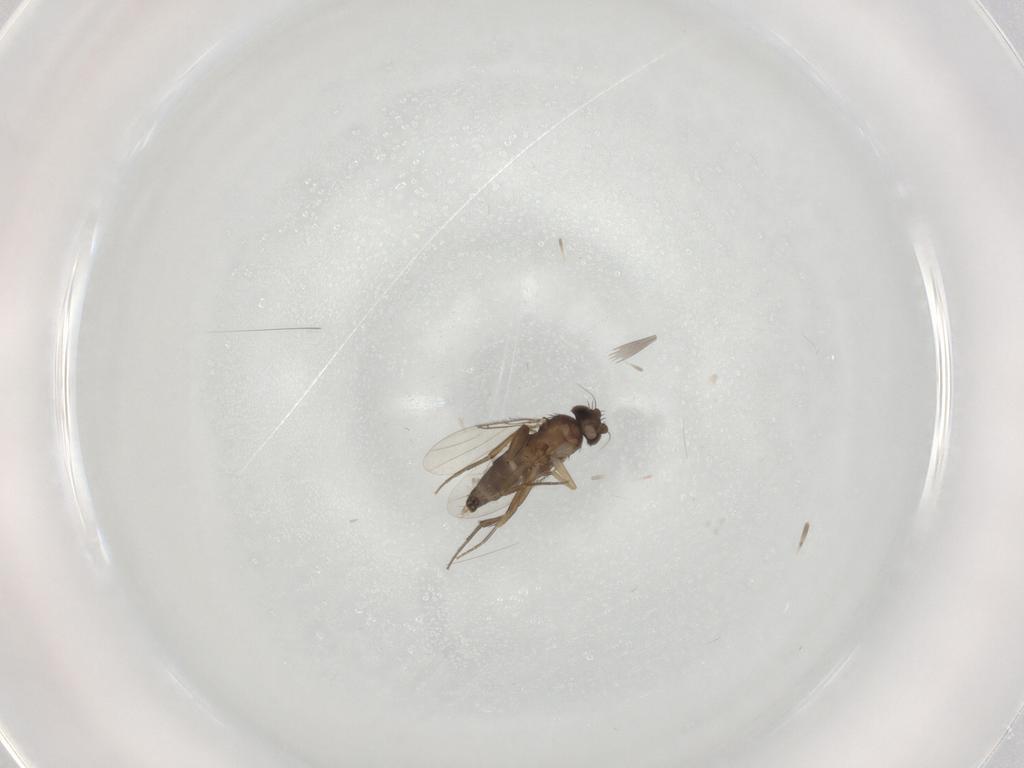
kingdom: Animalia
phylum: Arthropoda
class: Insecta
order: Diptera
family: Phoridae
